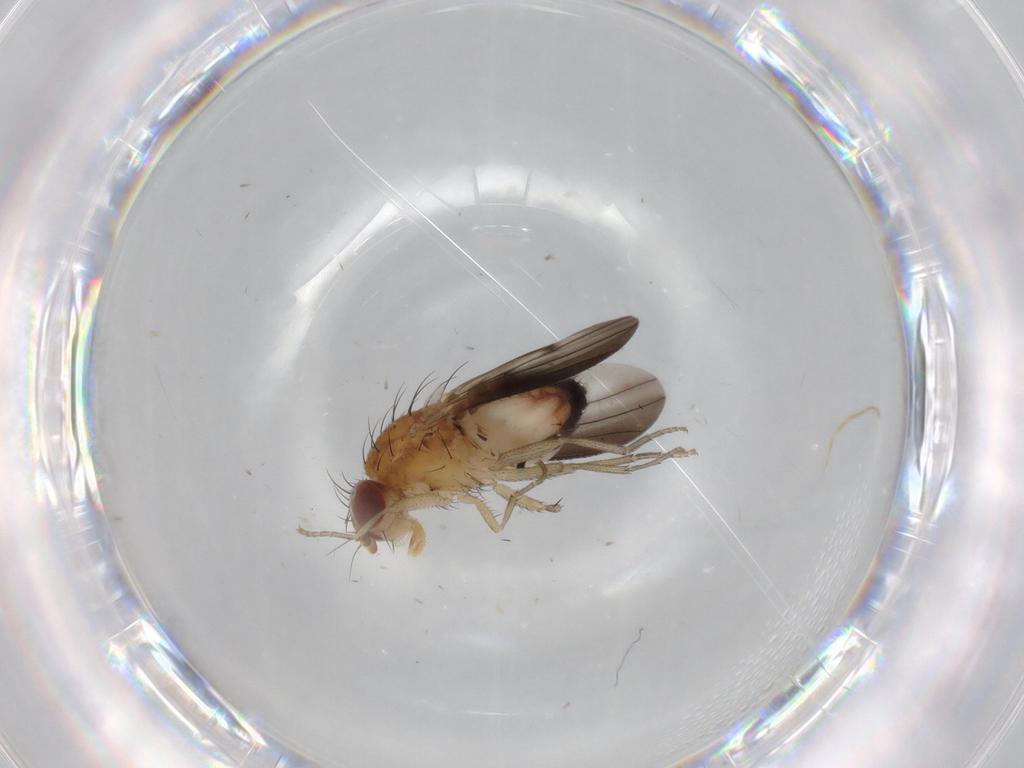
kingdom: Animalia
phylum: Arthropoda
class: Insecta
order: Diptera
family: Heleomyzidae
